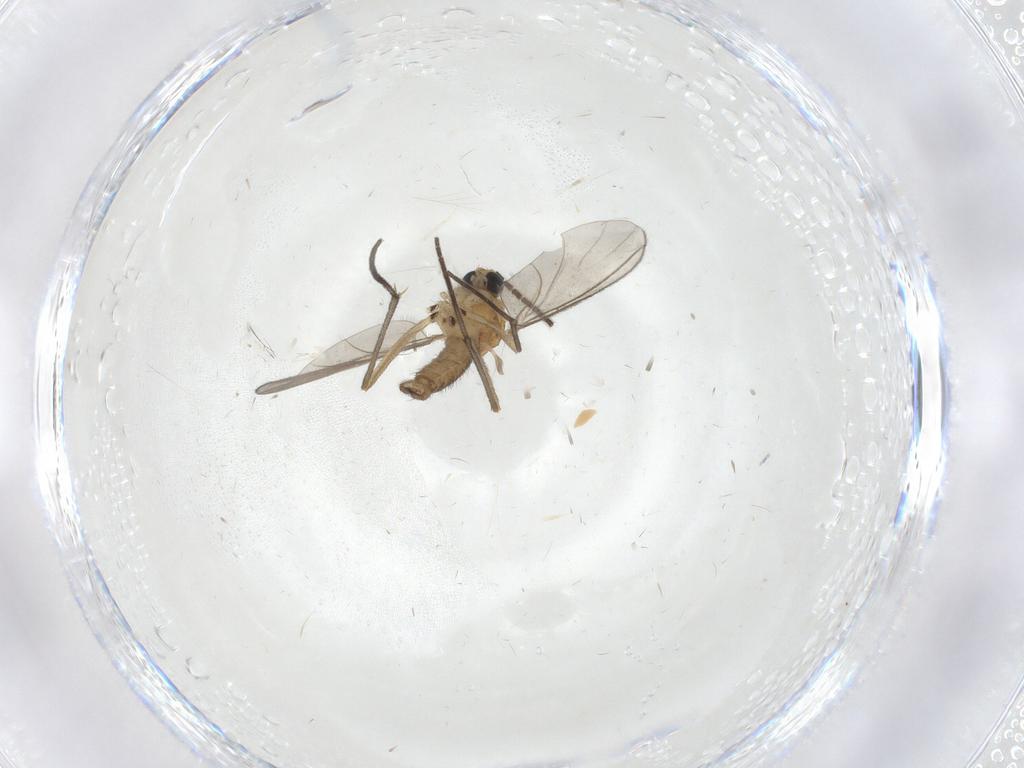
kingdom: Animalia
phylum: Arthropoda
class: Insecta
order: Diptera
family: Sciaridae
